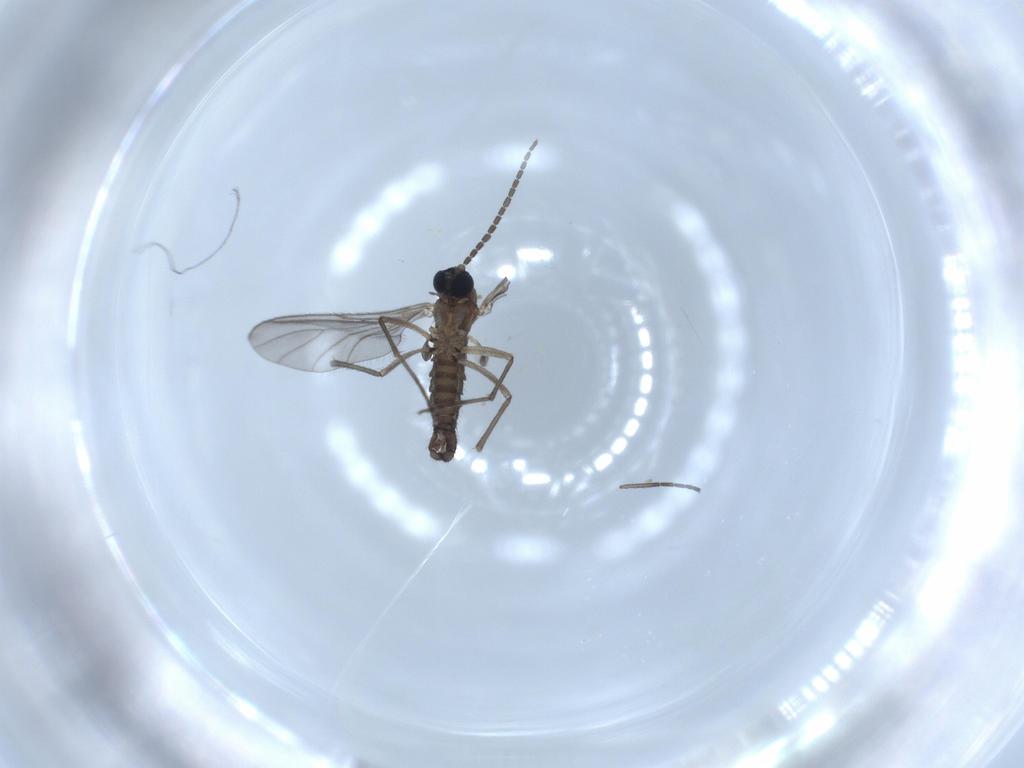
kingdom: Animalia
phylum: Arthropoda
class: Insecta
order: Diptera
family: Sciaridae
